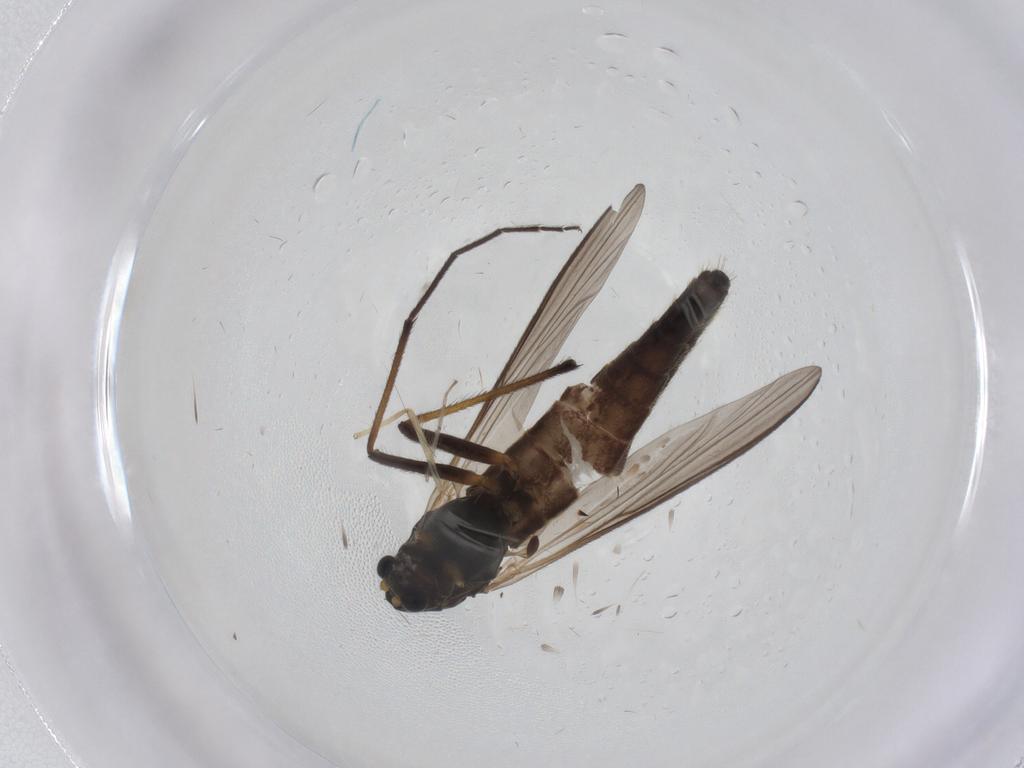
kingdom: Animalia
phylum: Arthropoda
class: Insecta
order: Diptera
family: Chironomidae
